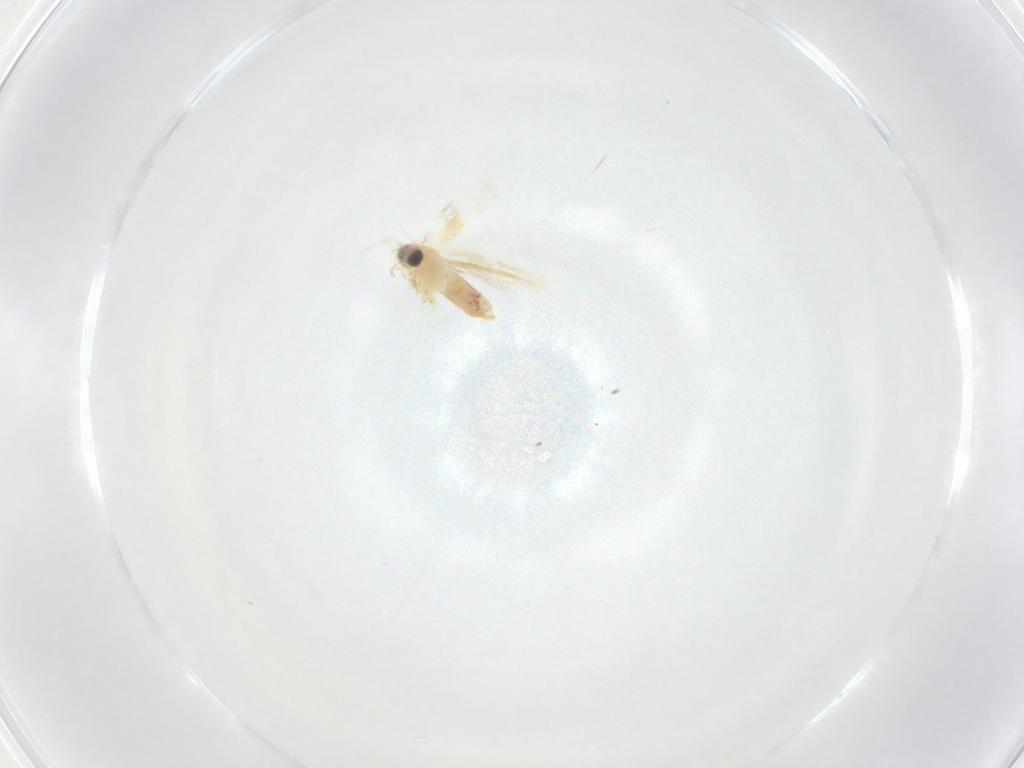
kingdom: Animalia
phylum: Arthropoda
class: Insecta
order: Lepidoptera
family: Nepticulidae
